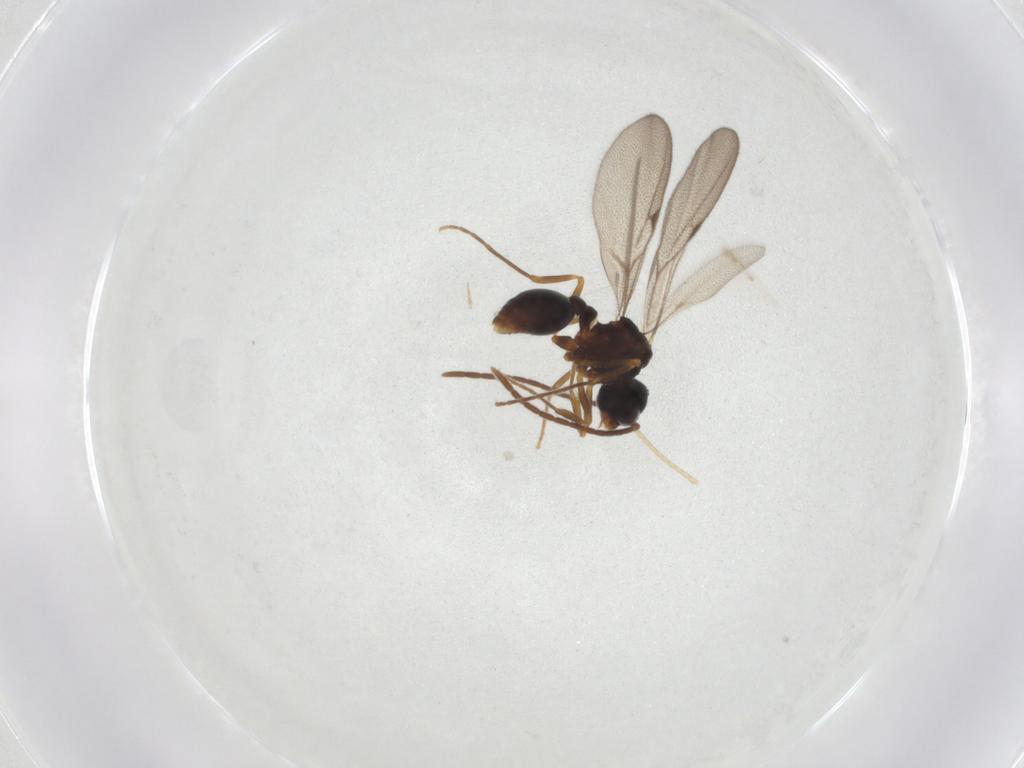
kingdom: Animalia
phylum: Arthropoda
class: Insecta
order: Hymenoptera
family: Formicidae
